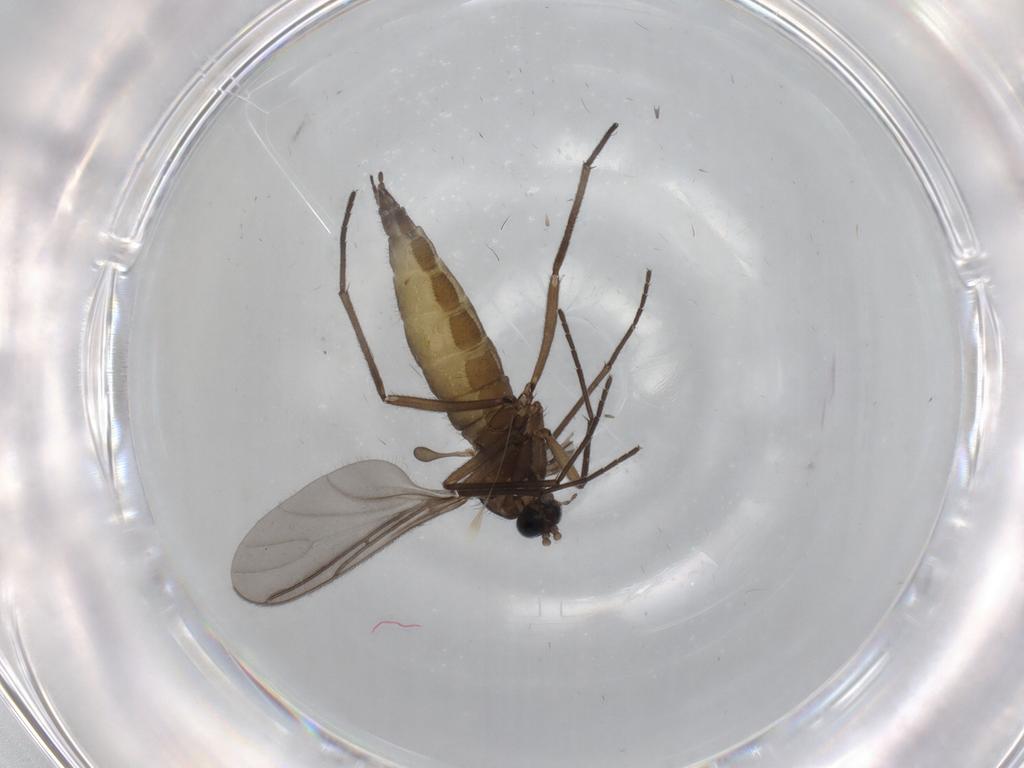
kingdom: Animalia
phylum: Arthropoda
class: Insecta
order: Diptera
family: Sciaridae
